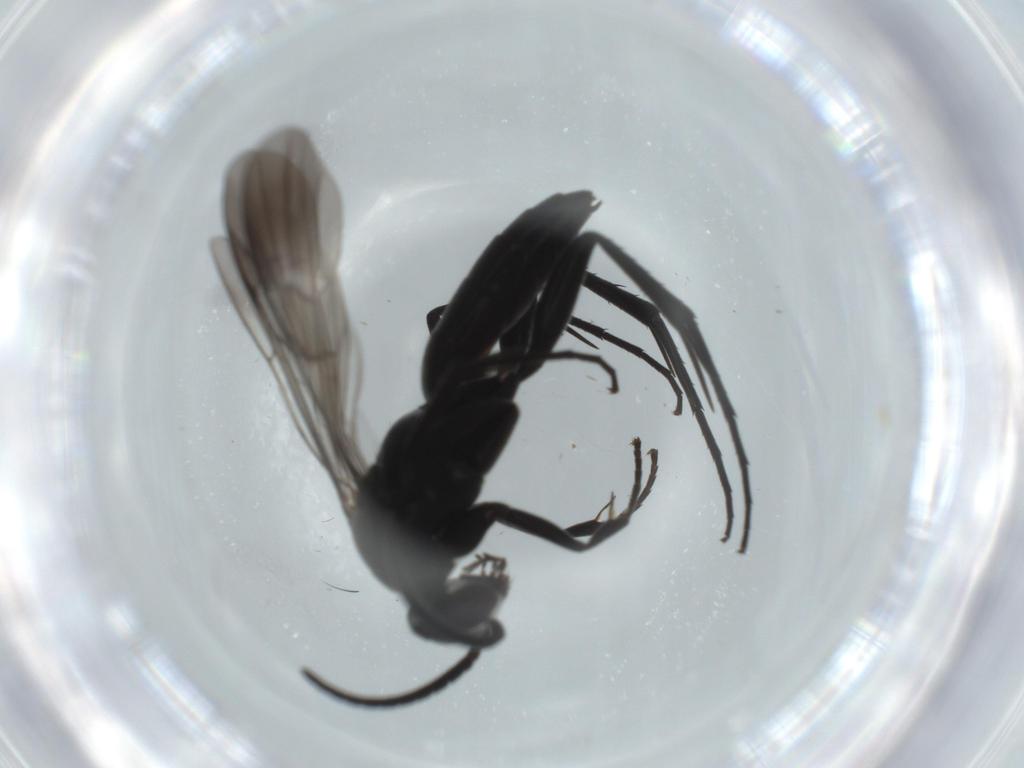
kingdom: Animalia
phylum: Arthropoda
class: Insecta
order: Hymenoptera
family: Pompilidae
